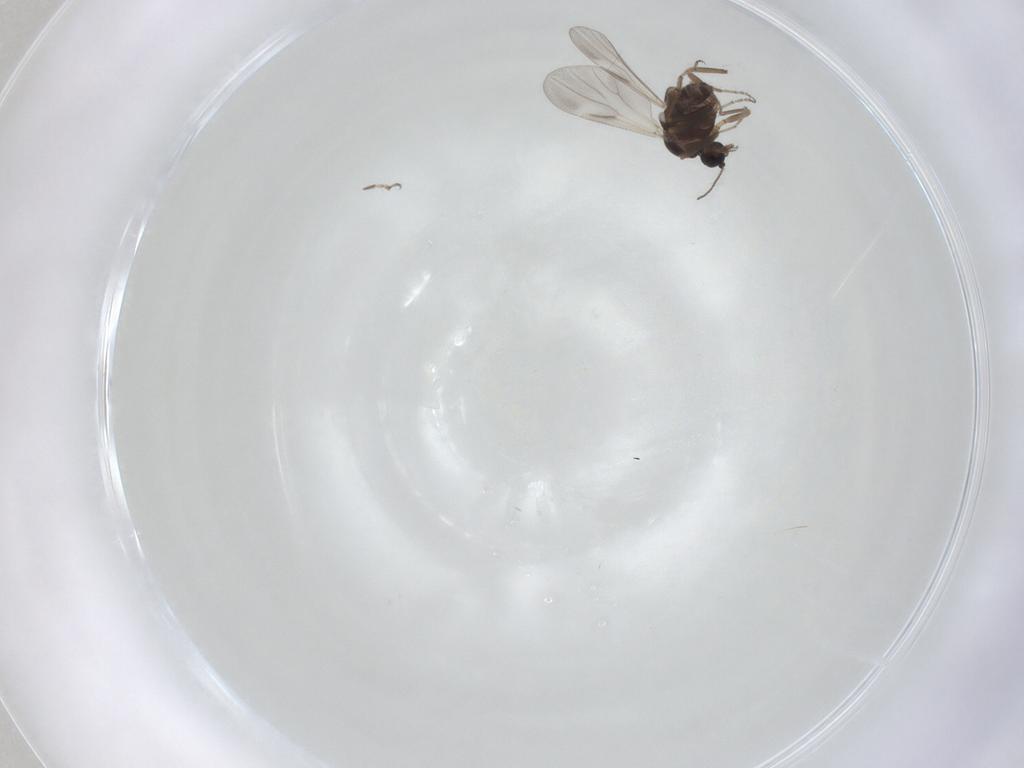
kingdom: Animalia
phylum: Arthropoda
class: Insecta
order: Diptera
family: Ceratopogonidae
